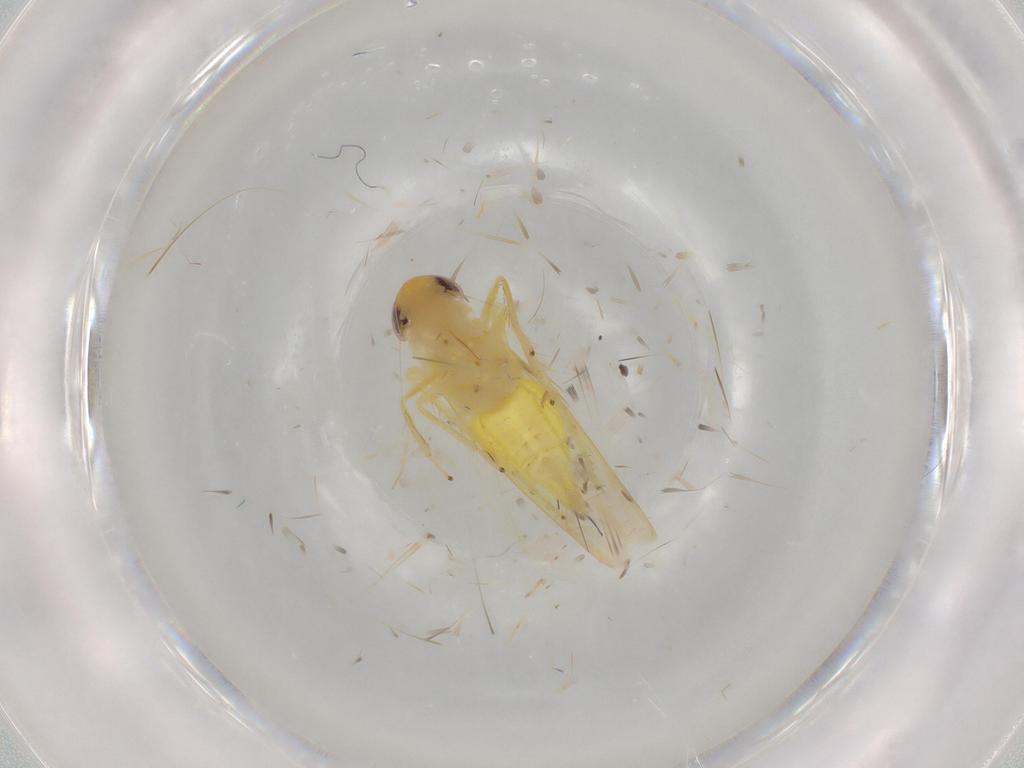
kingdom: Animalia
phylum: Arthropoda
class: Insecta
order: Hemiptera
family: Cicadellidae
